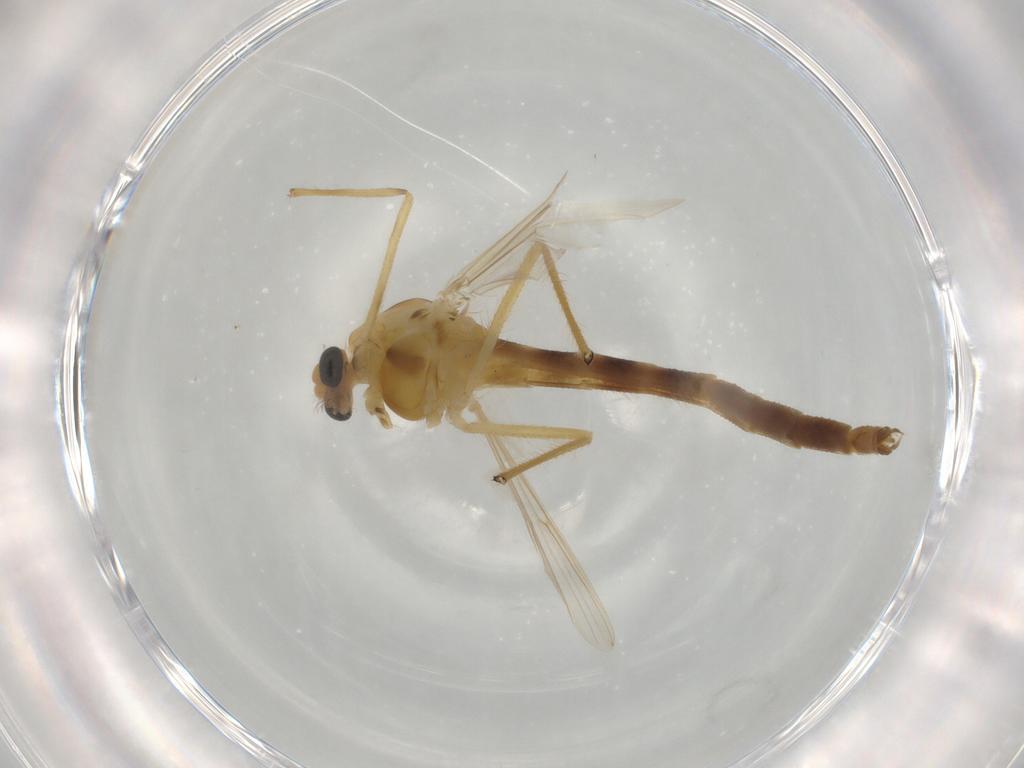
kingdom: Animalia
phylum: Arthropoda
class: Insecta
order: Diptera
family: Chironomidae
